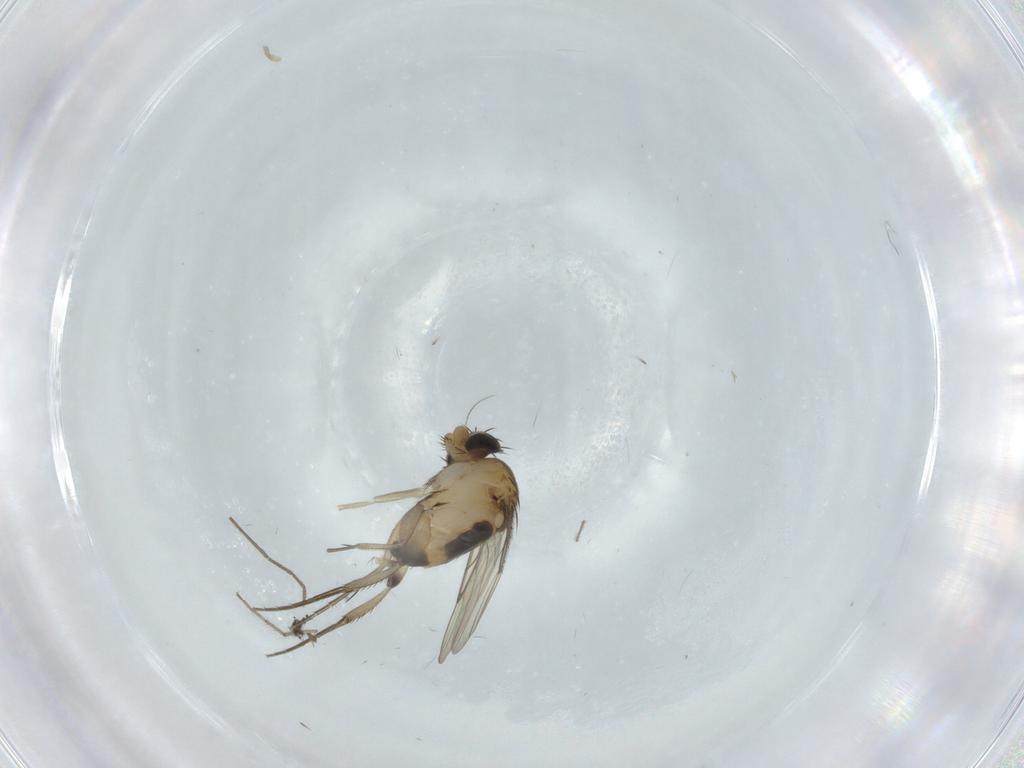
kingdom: Animalia
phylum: Arthropoda
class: Insecta
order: Diptera
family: Phoridae
